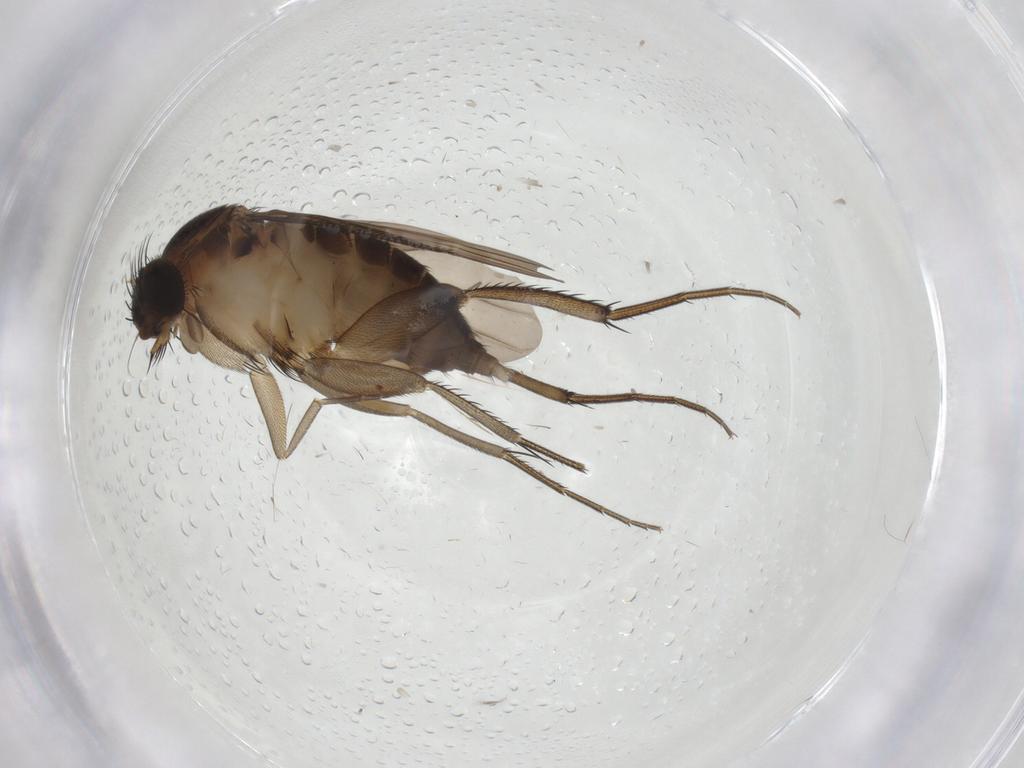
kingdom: Animalia
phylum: Arthropoda
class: Insecta
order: Diptera
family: Phoridae
